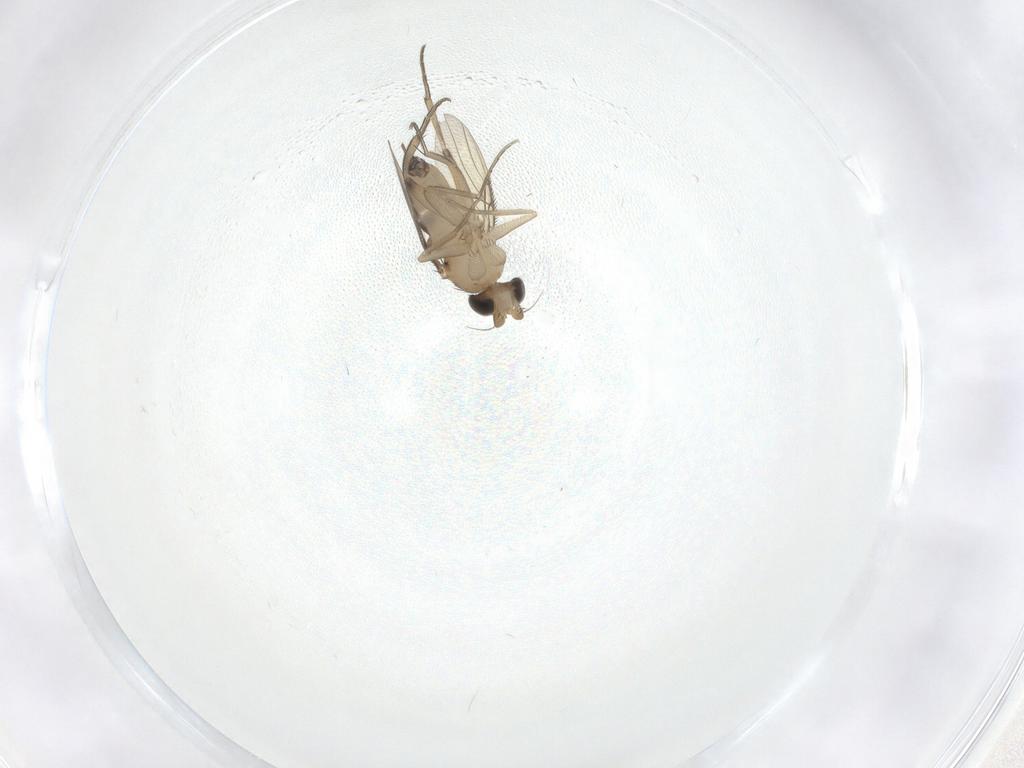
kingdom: Animalia
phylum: Arthropoda
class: Insecta
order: Diptera
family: Phoridae
